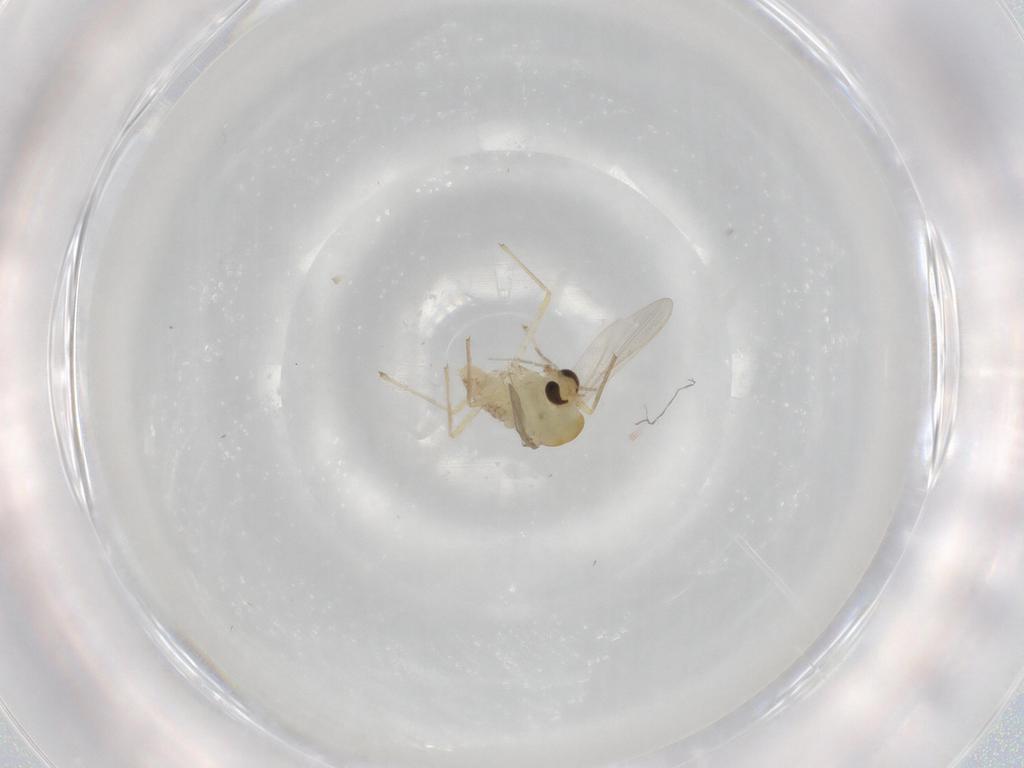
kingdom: Animalia
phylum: Arthropoda
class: Insecta
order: Diptera
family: Chironomidae
